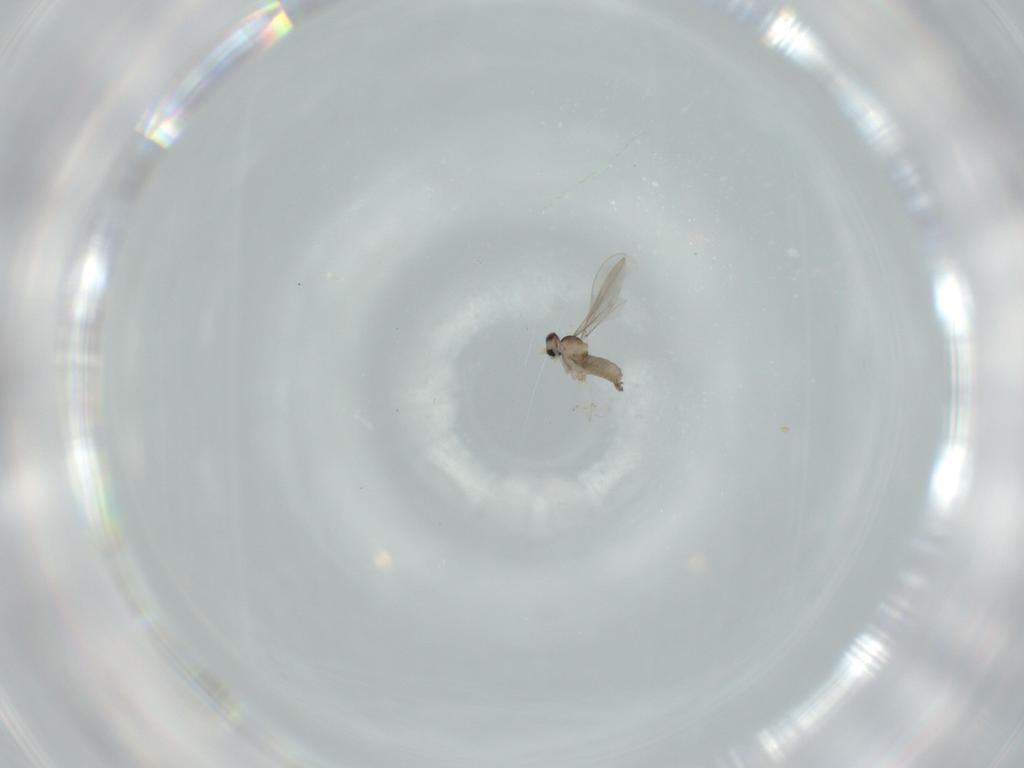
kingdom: Animalia
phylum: Arthropoda
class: Insecta
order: Diptera
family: Cecidomyiidae
